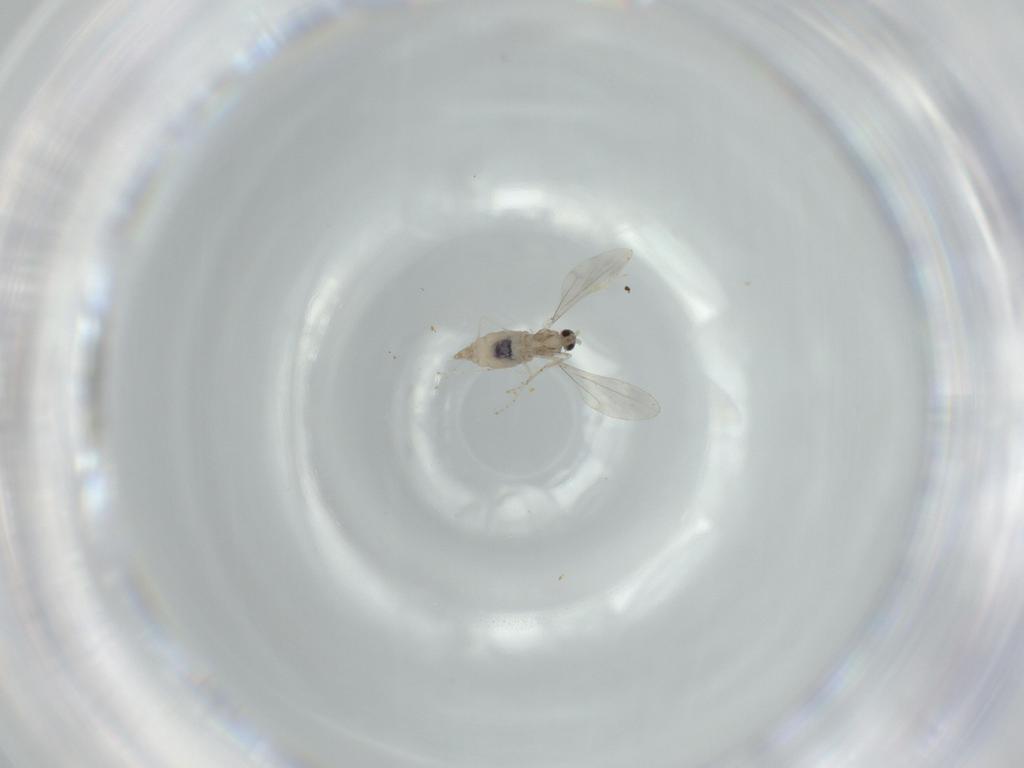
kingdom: Animalia
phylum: Arthropoda
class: Insecta
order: Diptera
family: Cecidomyiidae
